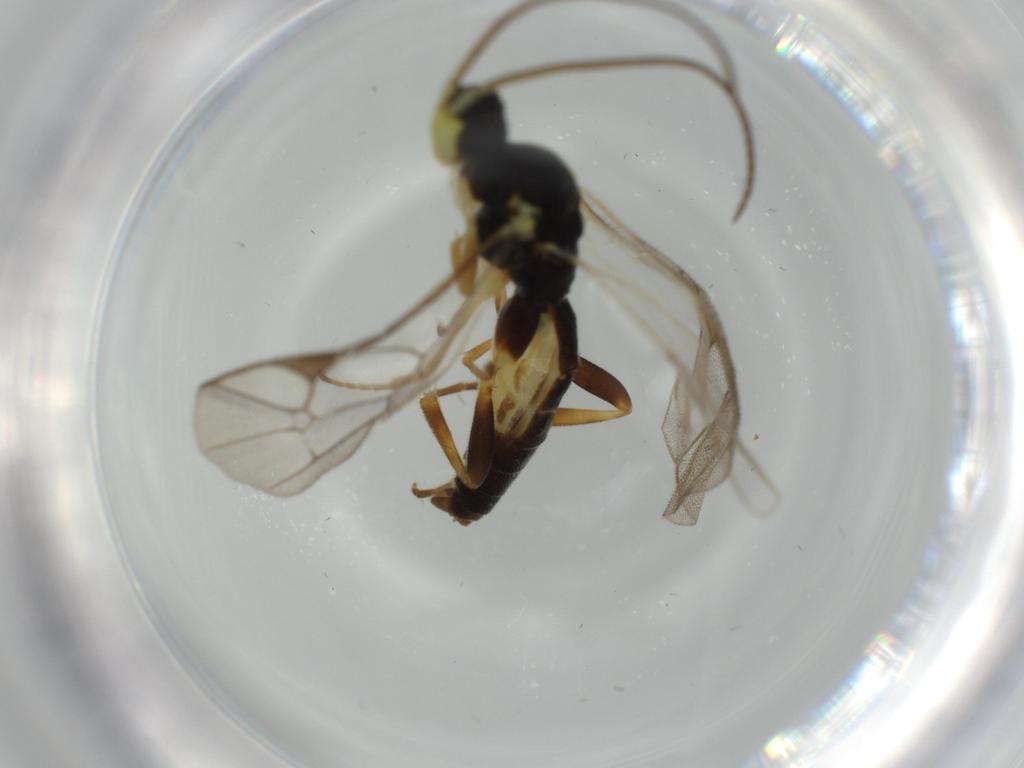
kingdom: Animalia
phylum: Arthropoda
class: Insecta
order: Hymenoptera
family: Ichneumonidae
